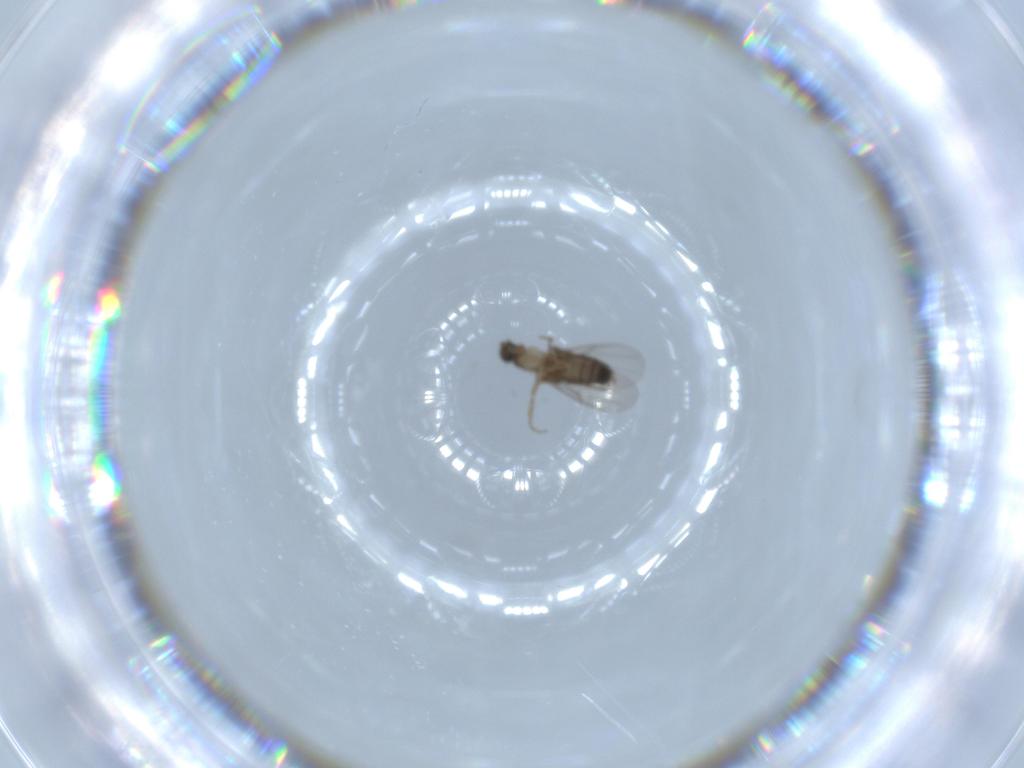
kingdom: Animalia
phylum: Arthropoda
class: Insecta
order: Diptera
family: Phoridae
